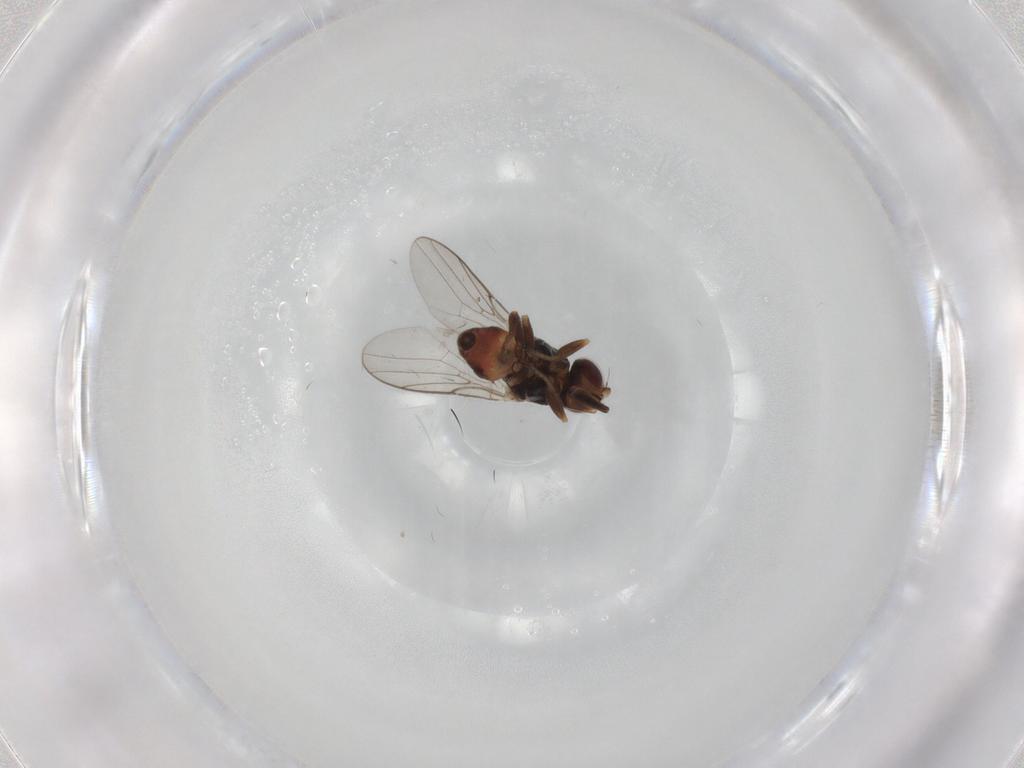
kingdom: Animalia
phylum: Arthropoda
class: Insecta
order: Diptera
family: Chloropidae
